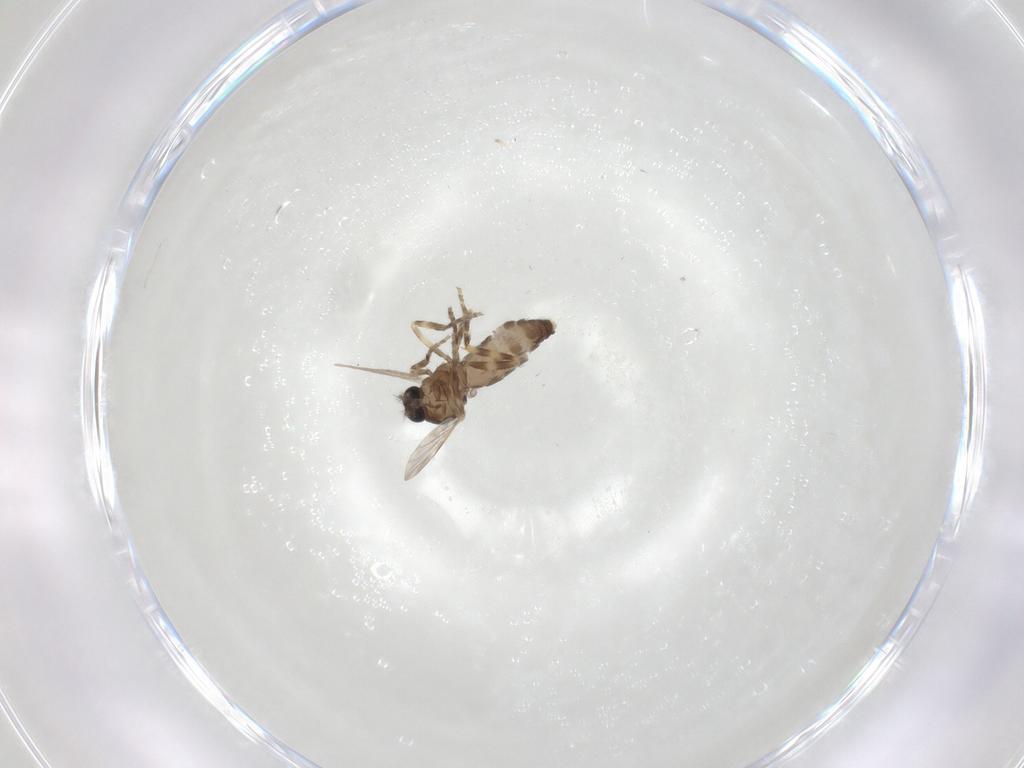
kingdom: Animalia
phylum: Arthropoda
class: Insecta
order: Diptera
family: Ceratopogonidae
